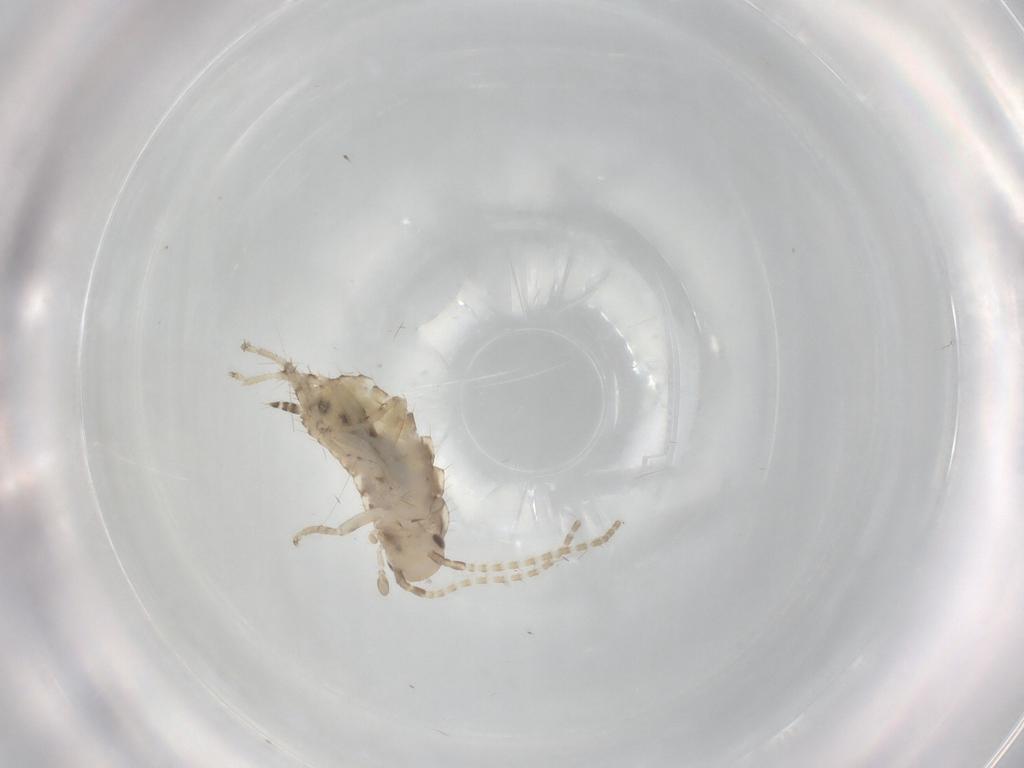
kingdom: Animalia
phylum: Arthropoda
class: Insecta
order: Blattodea
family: Ectobiidae
